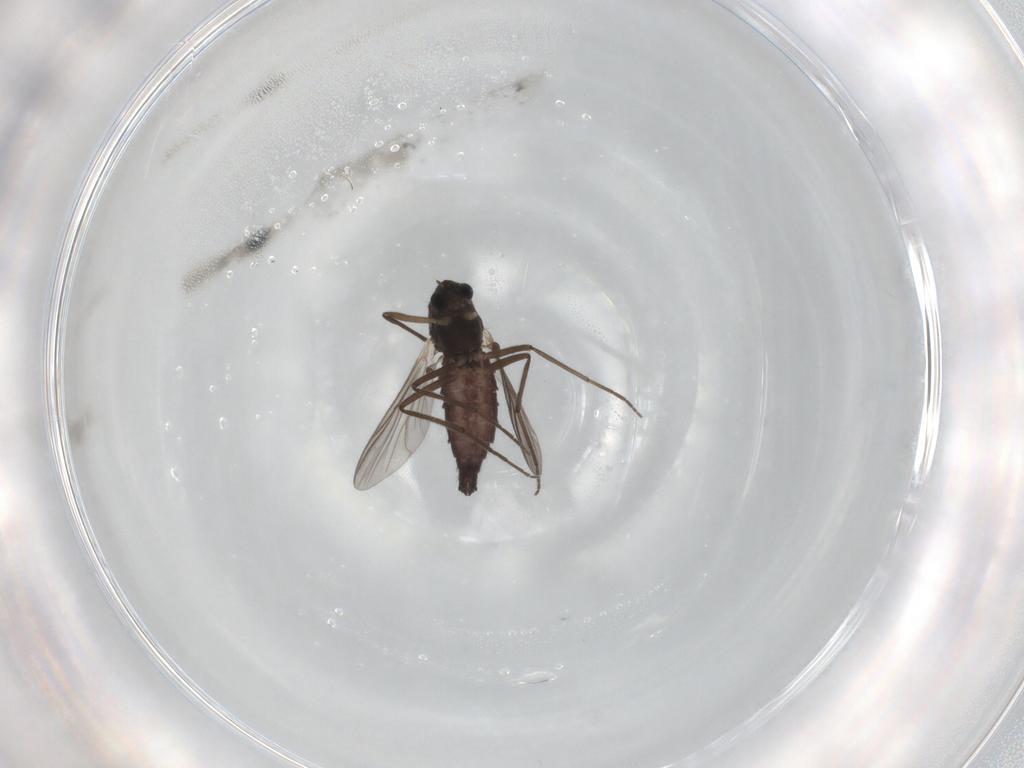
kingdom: Animalia
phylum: Arthropoda
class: Insecta
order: Diptera
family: Chironomidae
